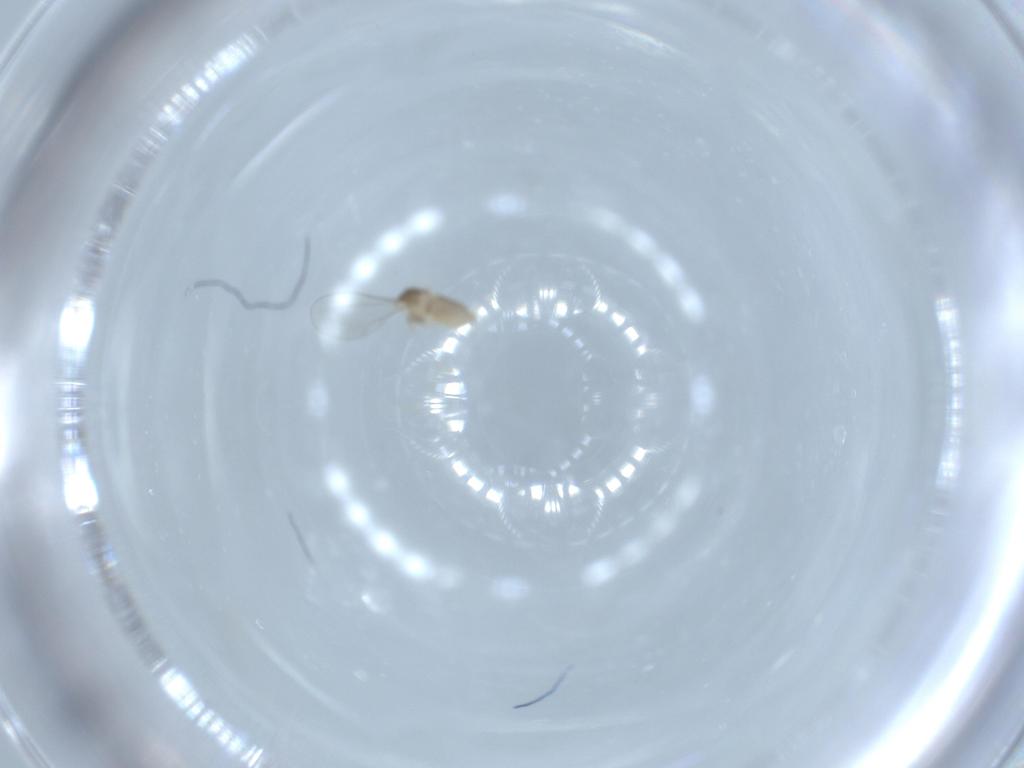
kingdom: Animalia
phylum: Arthropoda
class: Insecta
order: Diptera
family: Cecidomyiidae
